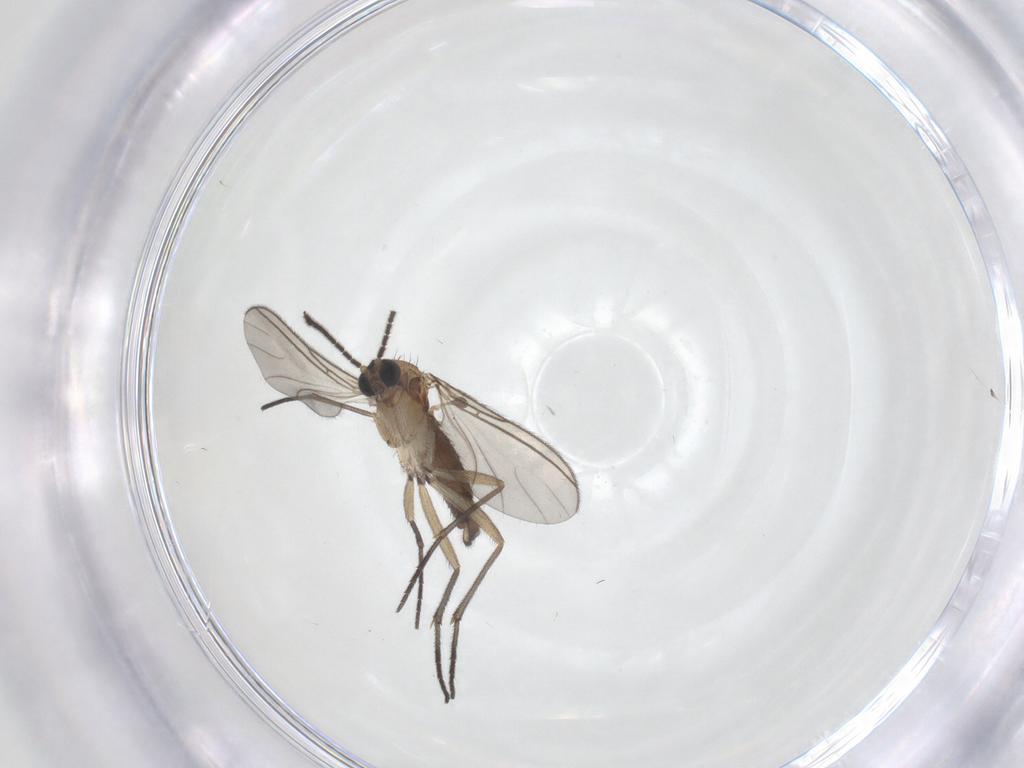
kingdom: Animalia
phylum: Arthropoda
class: Insecta
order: Diptera
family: Sciaridae
